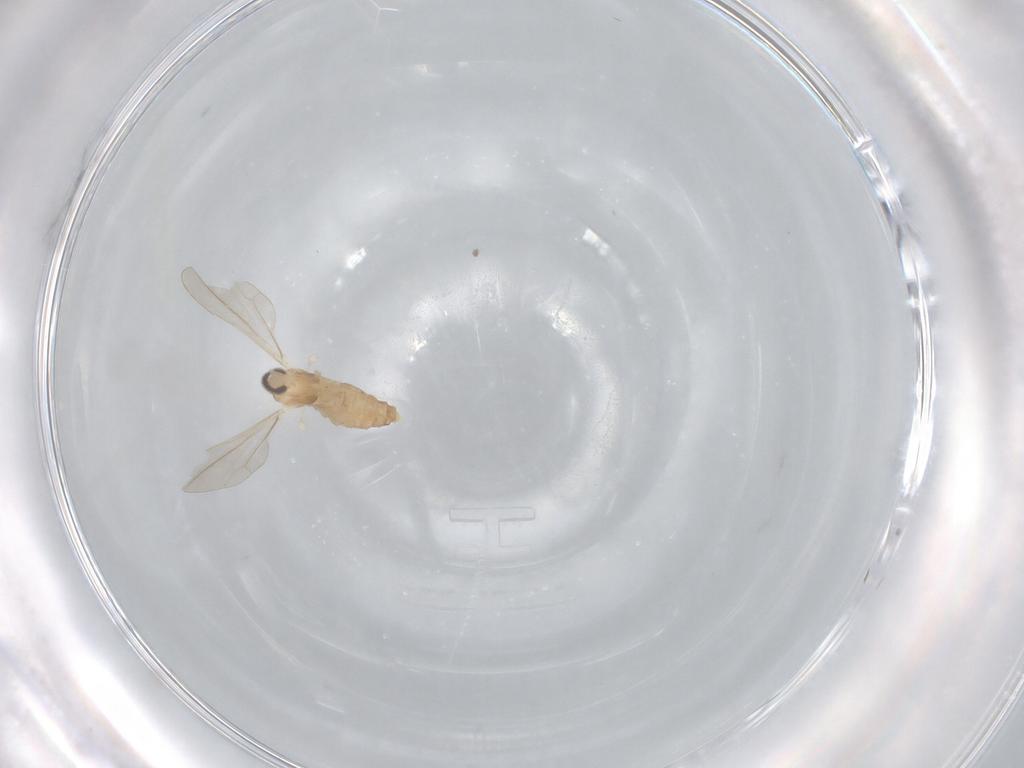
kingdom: Animalia
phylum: Arthropoda
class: Insecta
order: Diptera
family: Cecidomyiidae
